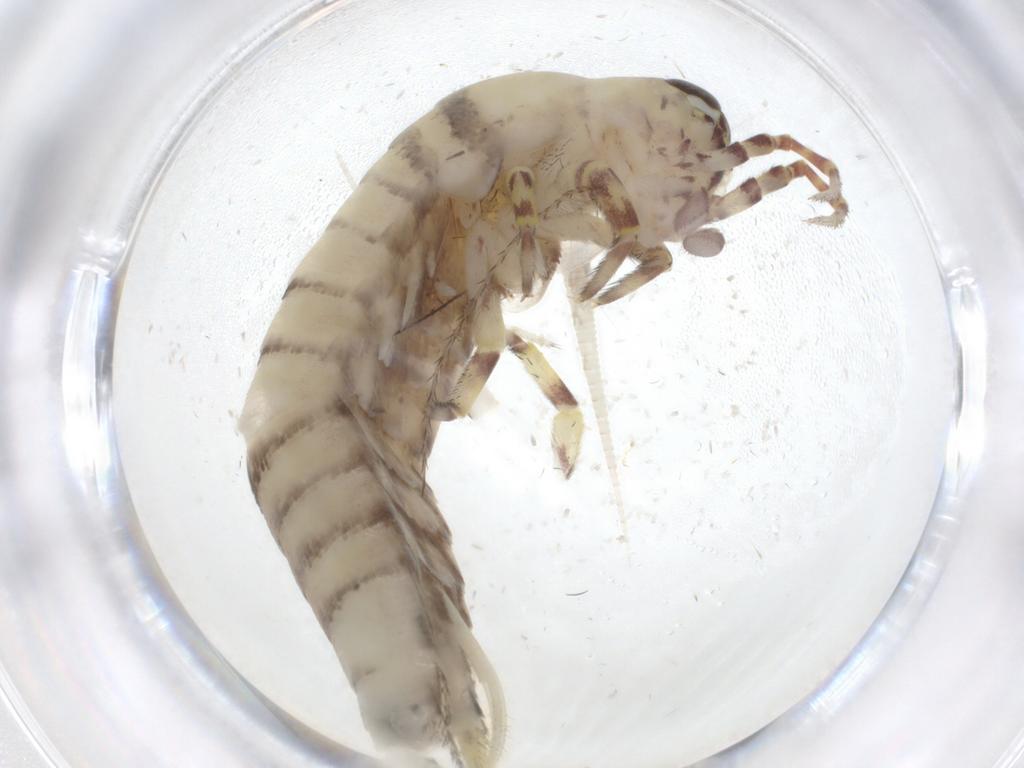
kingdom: Animalia
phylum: Arthropoda
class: Insecta
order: Archaeognatha
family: Meinertellidae
